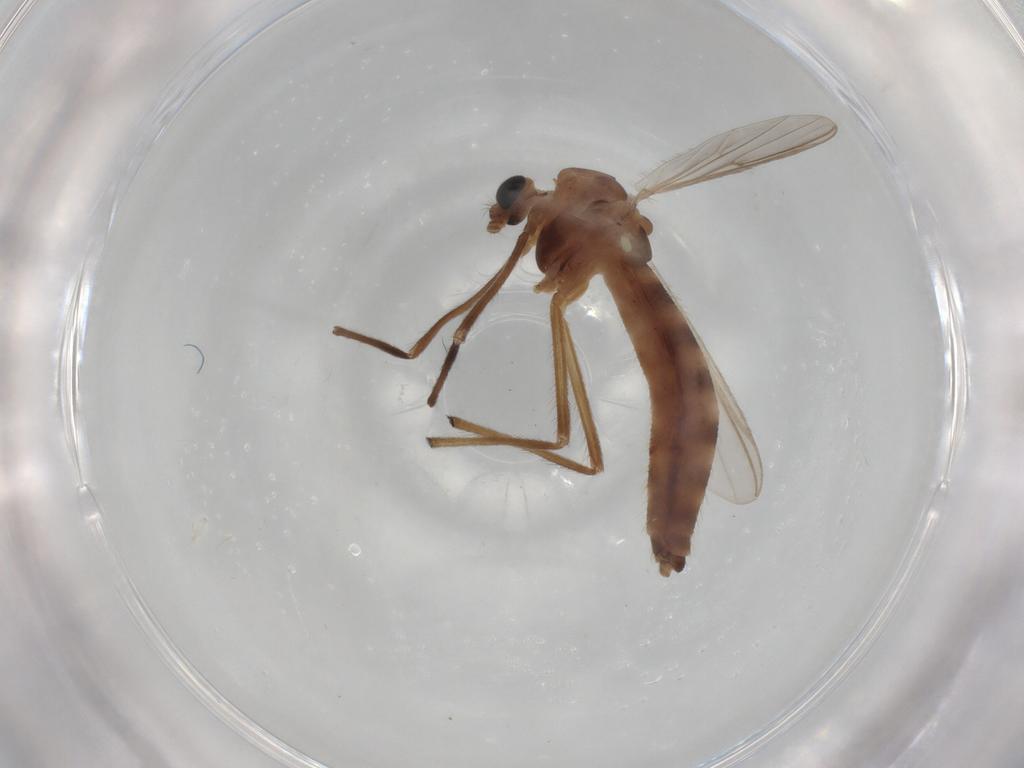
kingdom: Animalia
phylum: Arthropoda
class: Insecta
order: Diptera
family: Chironomidae
